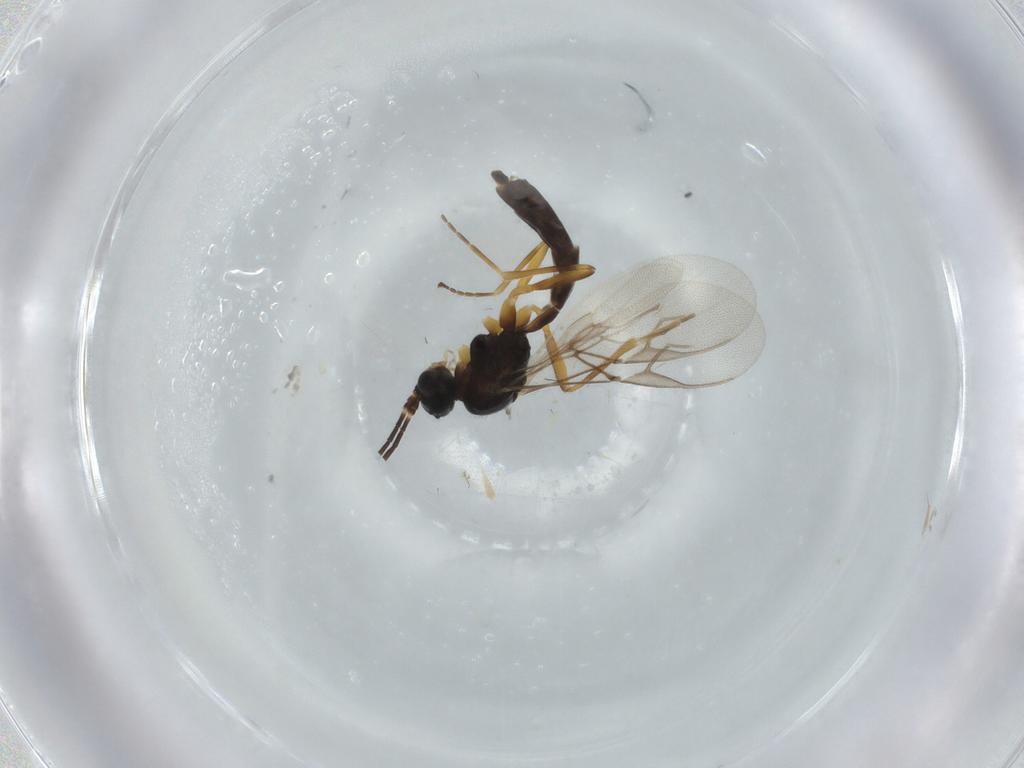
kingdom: Animalia
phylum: Arthropoda
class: Insecta
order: Hymenoptera
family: Braconidae
